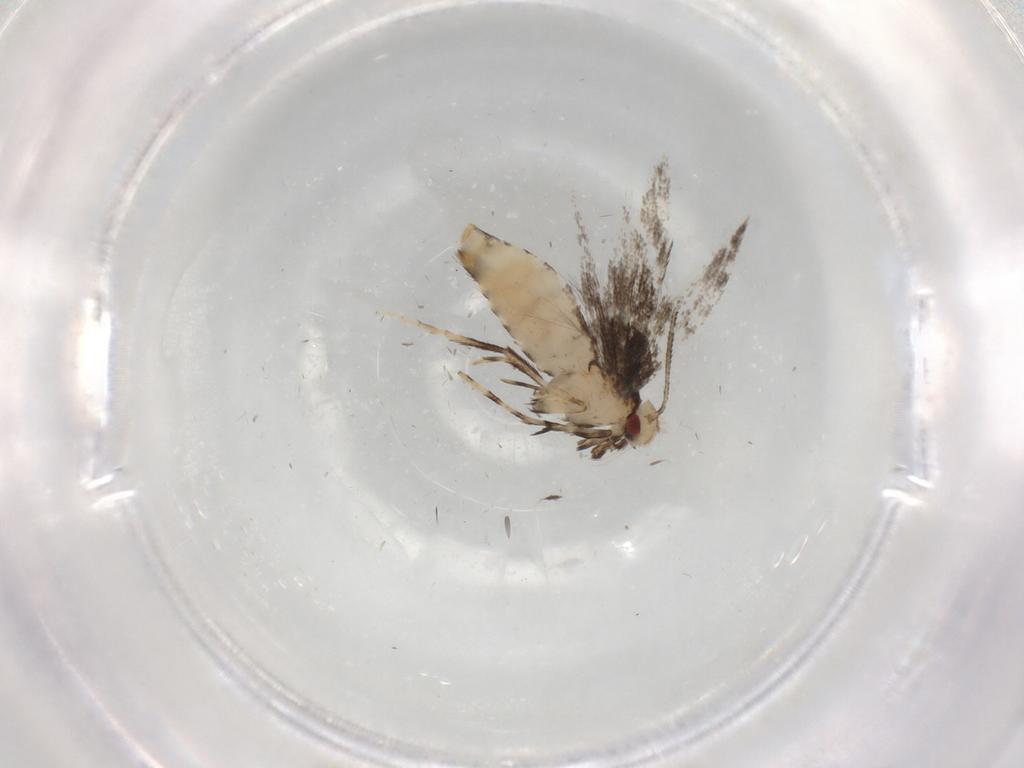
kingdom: Animalia
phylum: Arthropoda
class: Insecta
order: Lepidoptera
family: Gracillariidae
